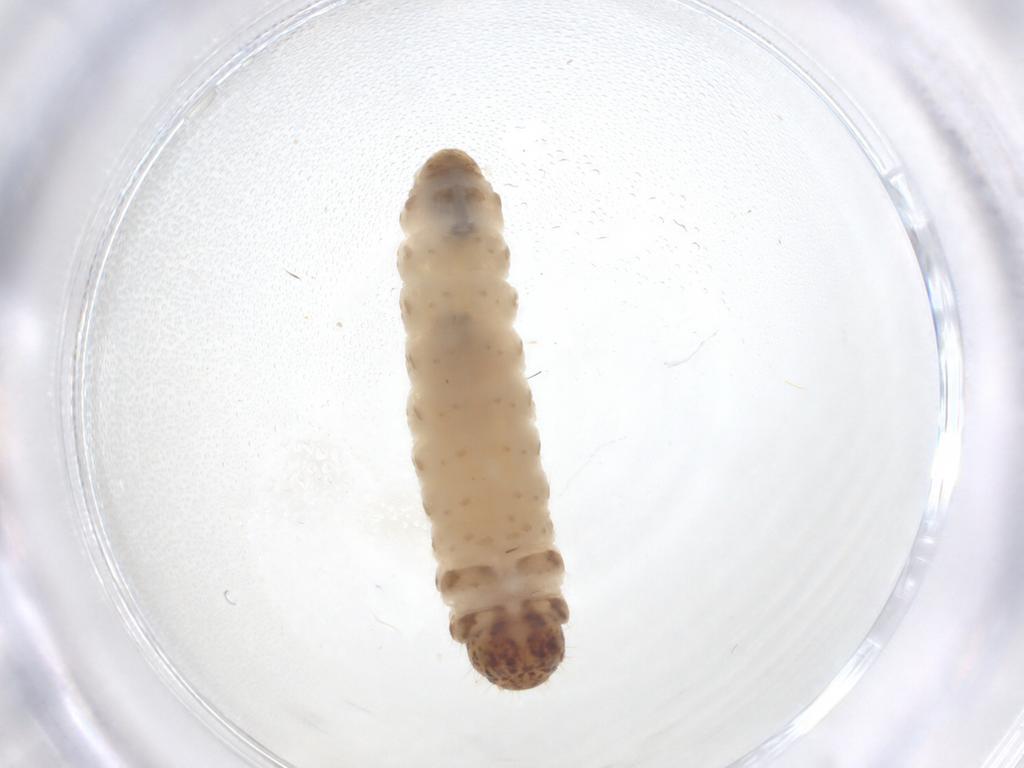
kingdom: Animalia
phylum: Arthropoda
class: Insecta
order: Lepidoptera
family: Psychidae
